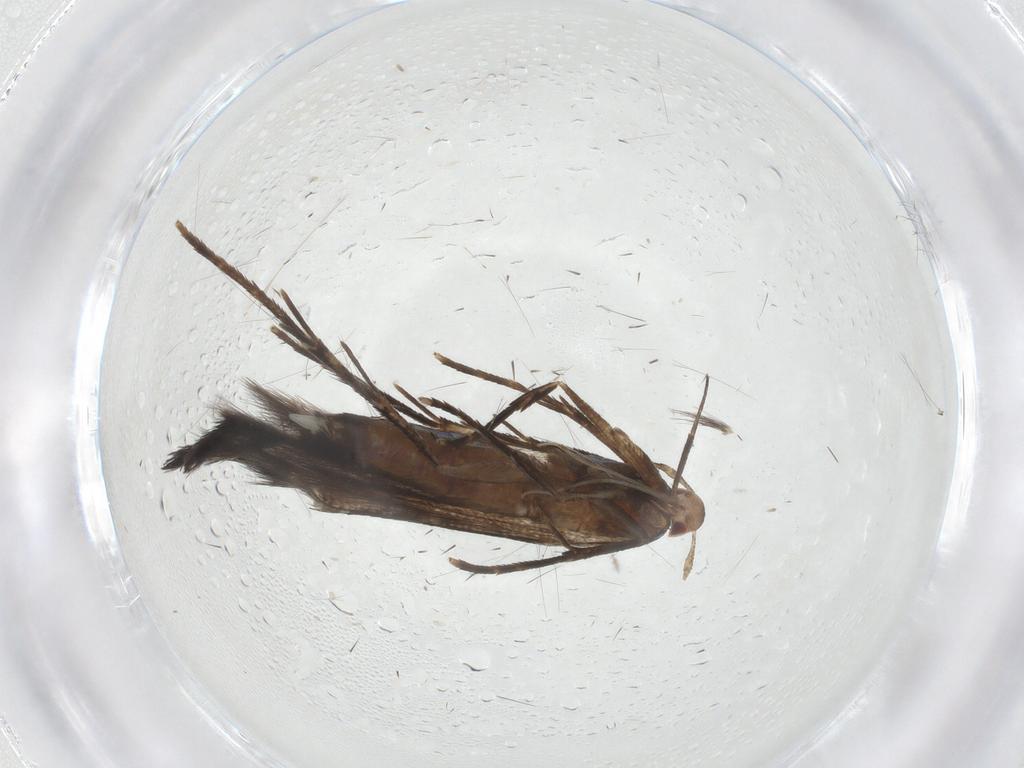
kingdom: Animalia
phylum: Arthropoda
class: Insecta
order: Lepidoptera
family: Cosmopterigidae
